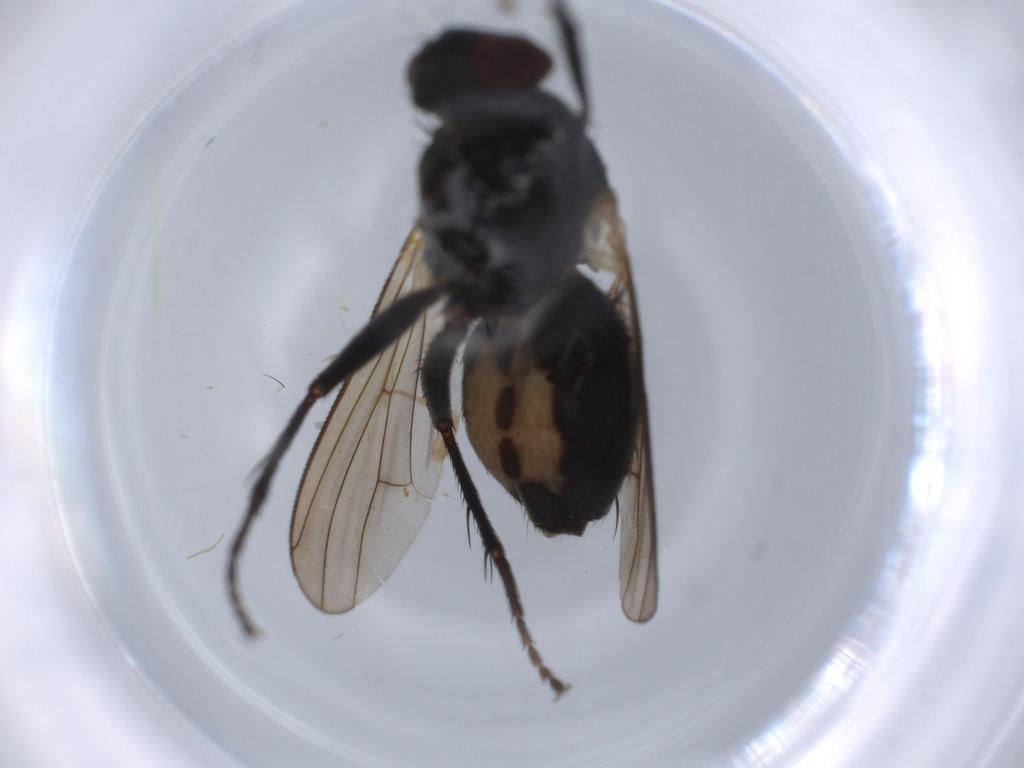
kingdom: Animalia
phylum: Arthropoda
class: Insecta
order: Diptera
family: Muscidae
